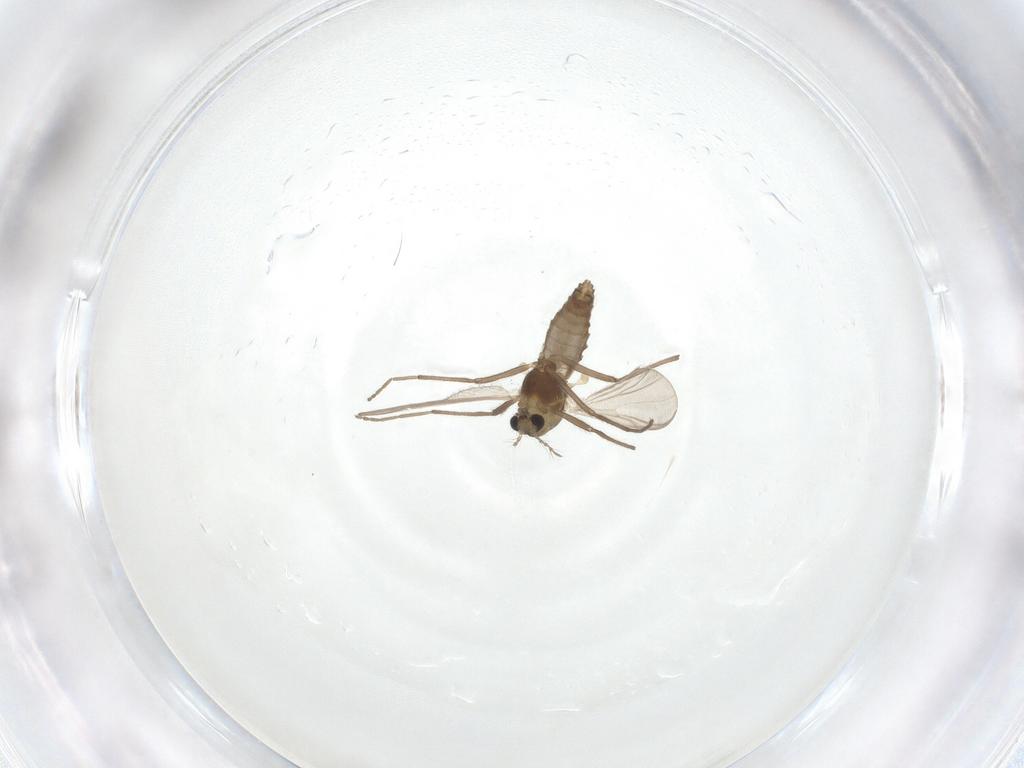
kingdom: Animalia
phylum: Arthropoda
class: Insecta
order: Diptera
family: Chironomidae
